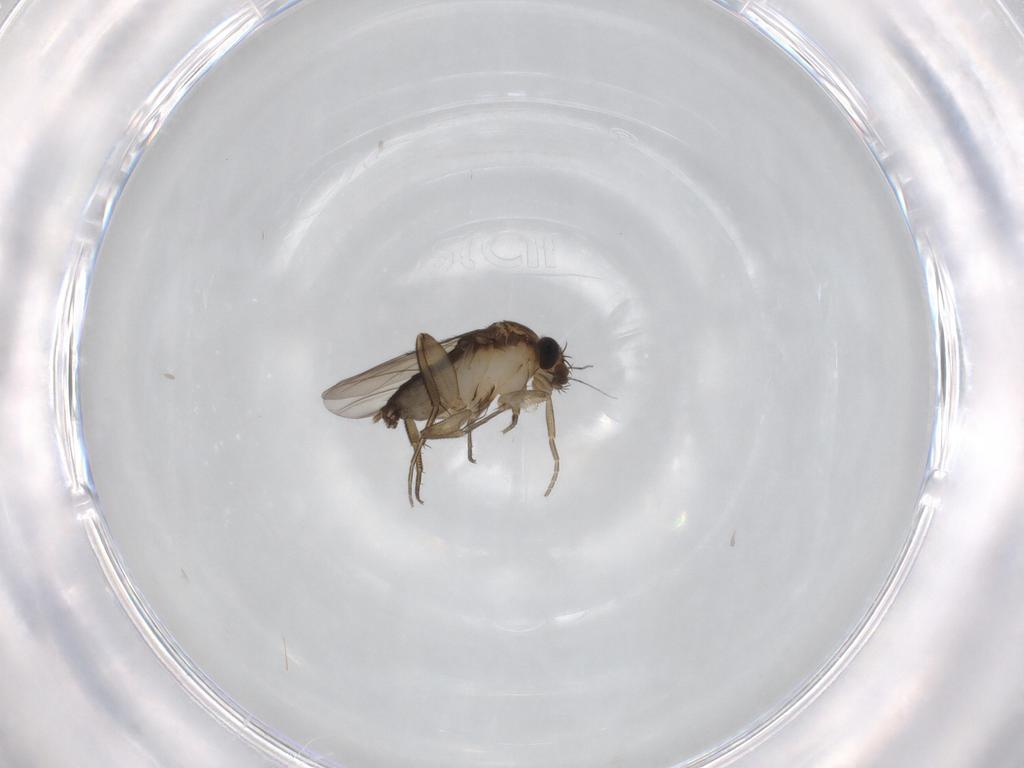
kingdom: Animalia
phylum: Arthropoda
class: Insecta
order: Diptera
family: Phoridae
